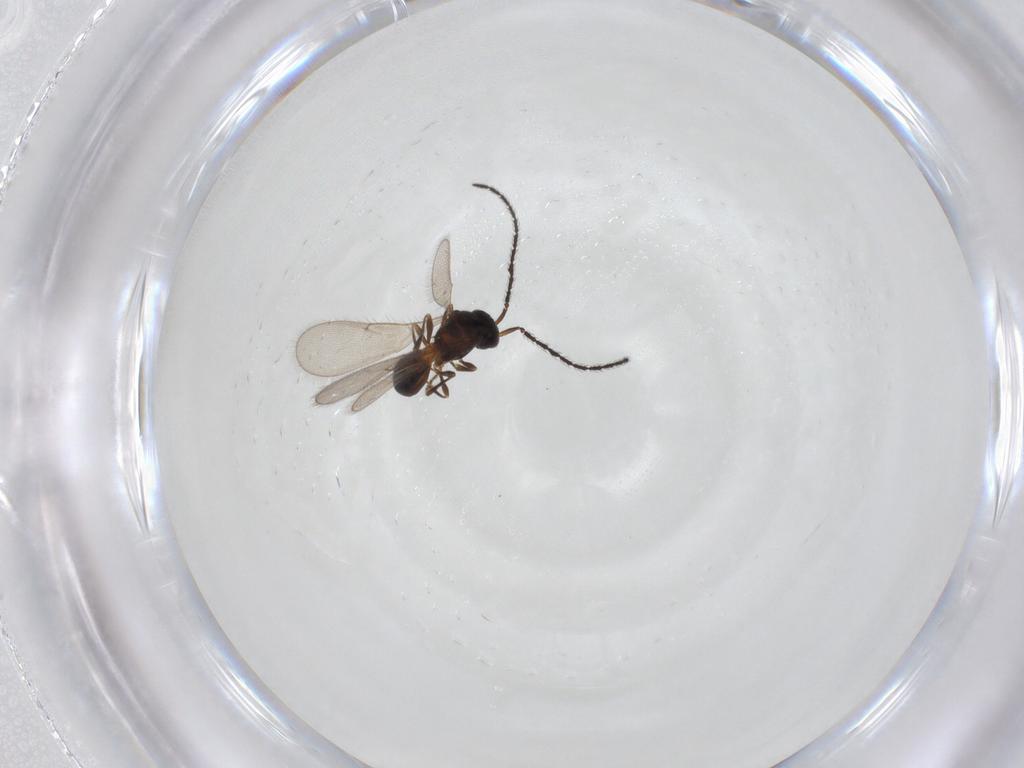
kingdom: Animalia
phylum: Arthropoda
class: Insecta
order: Hymenoptera
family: Scelionidae
